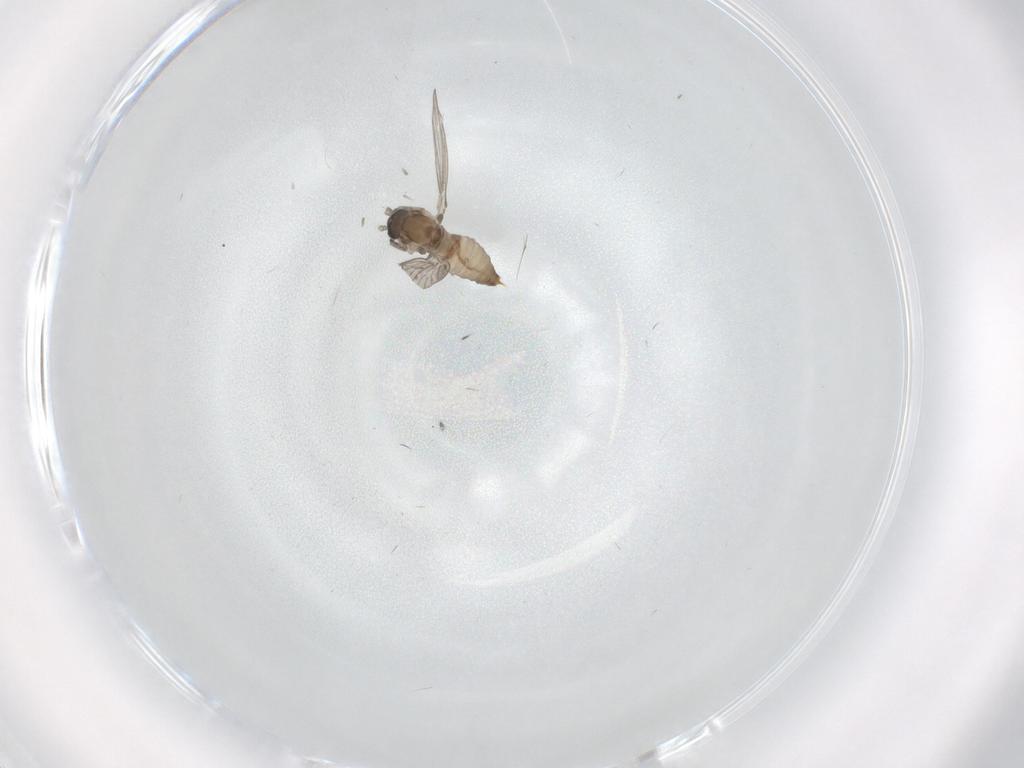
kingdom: Animalia
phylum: Arthropoda
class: Insecta
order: Diptera
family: Psychodidae
